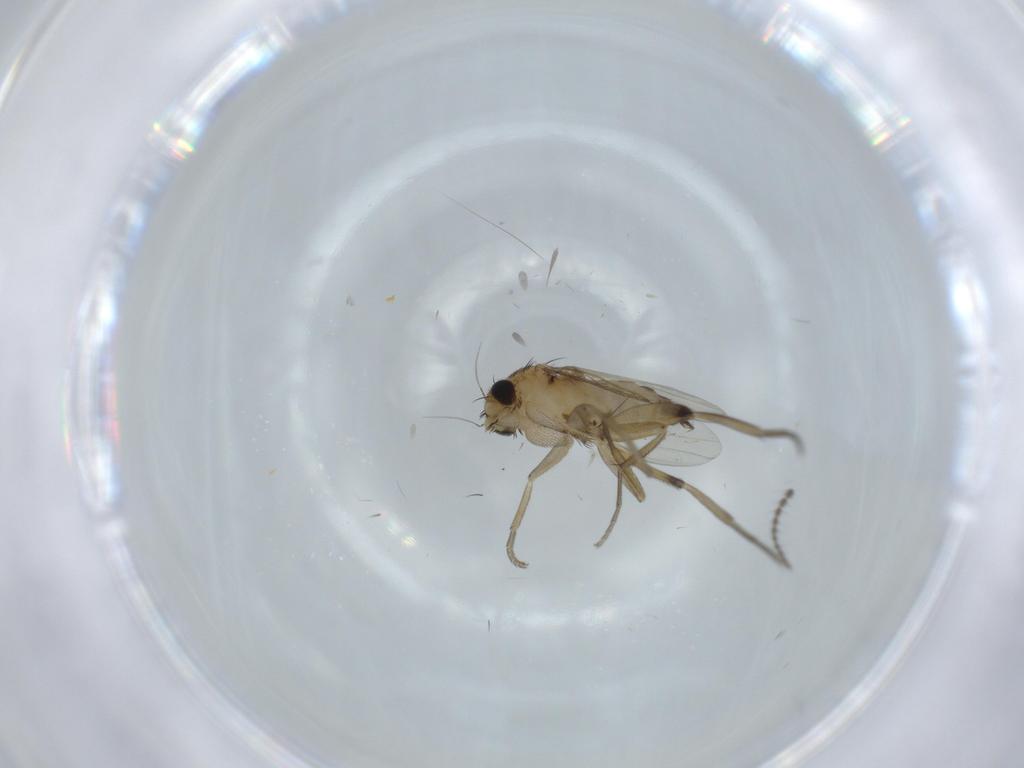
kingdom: Animalia
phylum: Arthropoda
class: Insecta
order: Diptera
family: Phoridae
